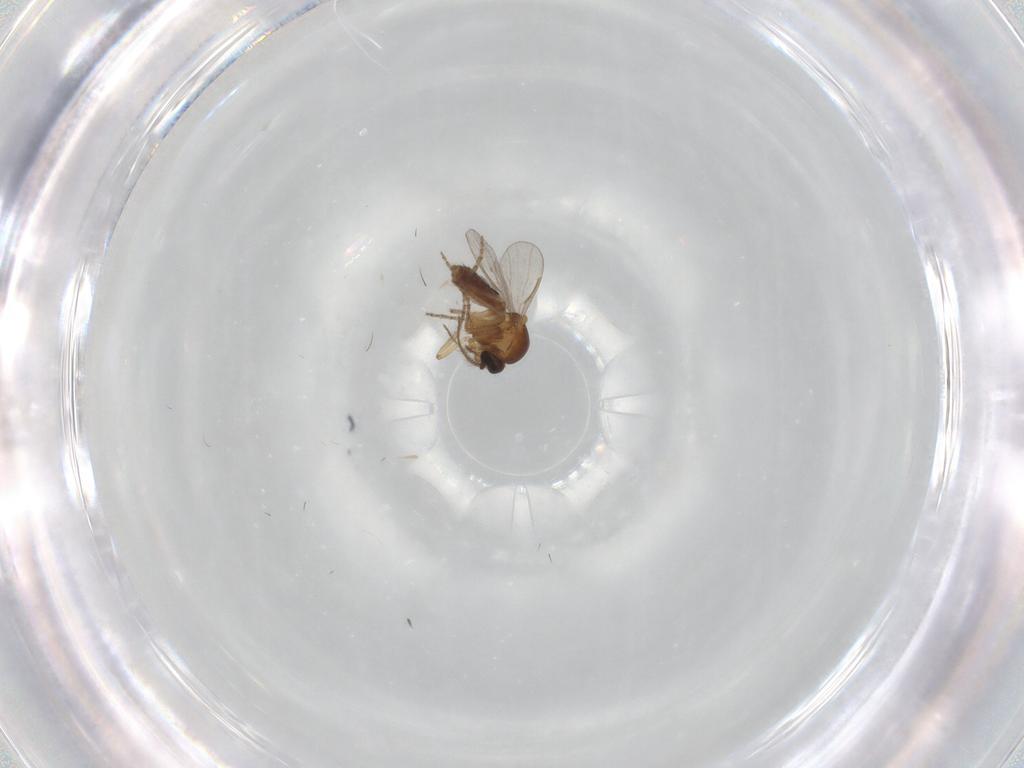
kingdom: Animalia
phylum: Arthropoda
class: Insecta
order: Diptera
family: Ceratopogonidae
